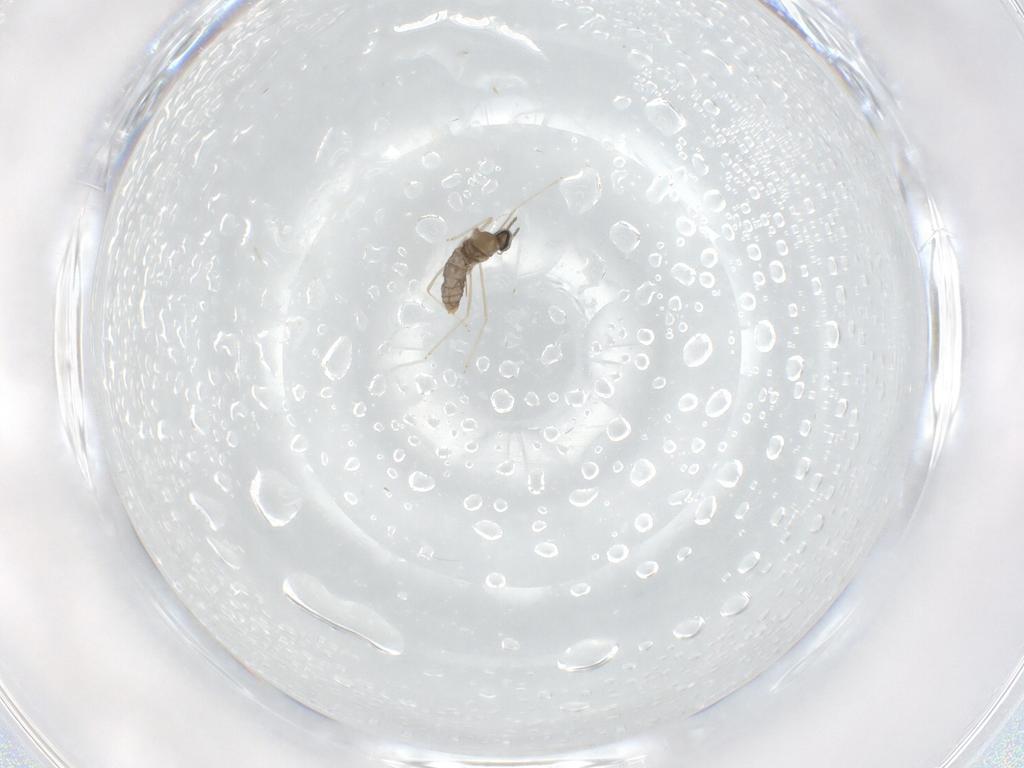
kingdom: Animalia
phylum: Arthropoda
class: Insecta
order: Diptera
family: Cecidomyiidae
